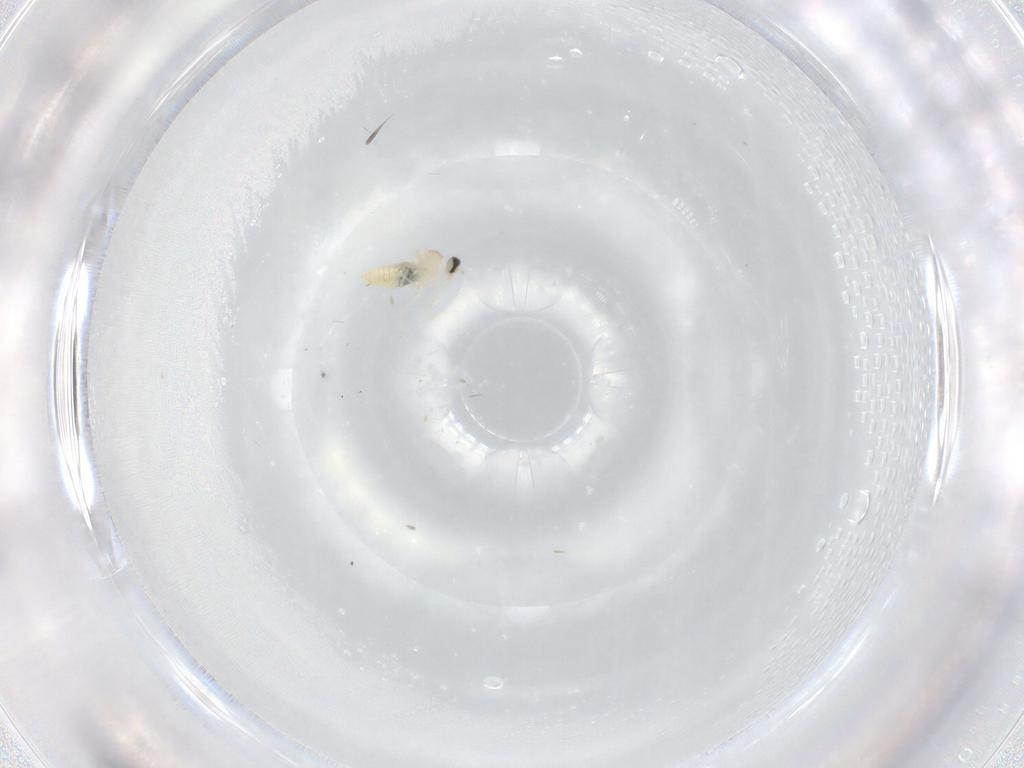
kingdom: Animalia
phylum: Arthropoda
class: Insecta
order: Diptera
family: Cecidomyiidae
